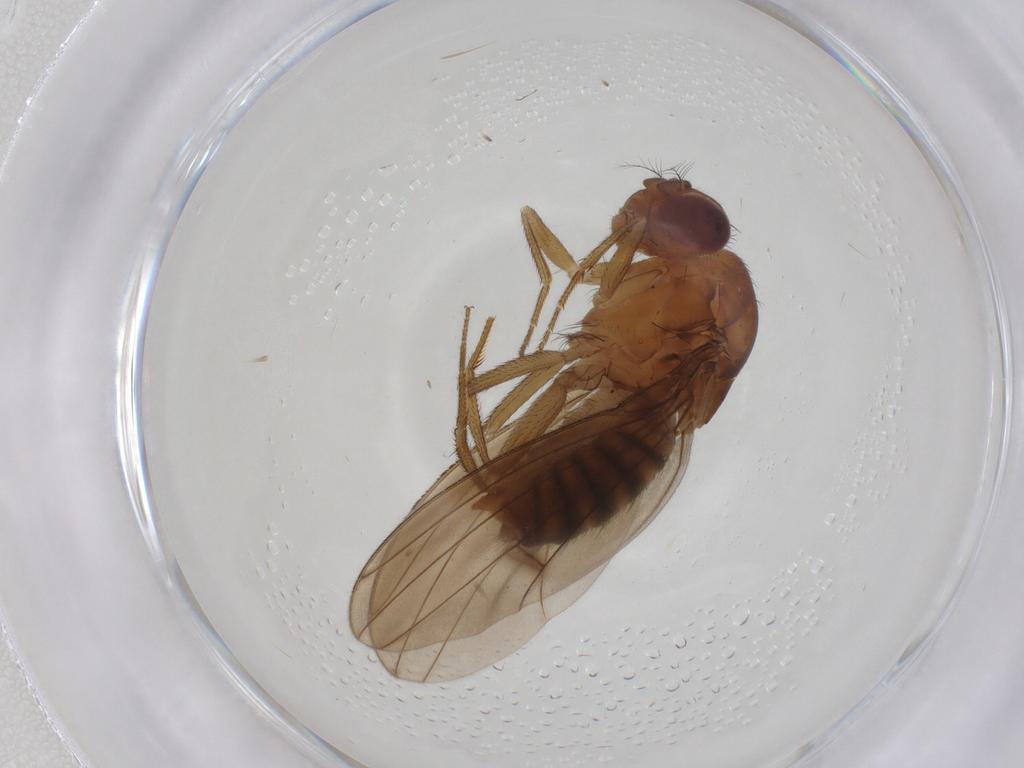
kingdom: Animalia
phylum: Arthropoda
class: Insecta
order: Diptera
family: Drosophilidae
